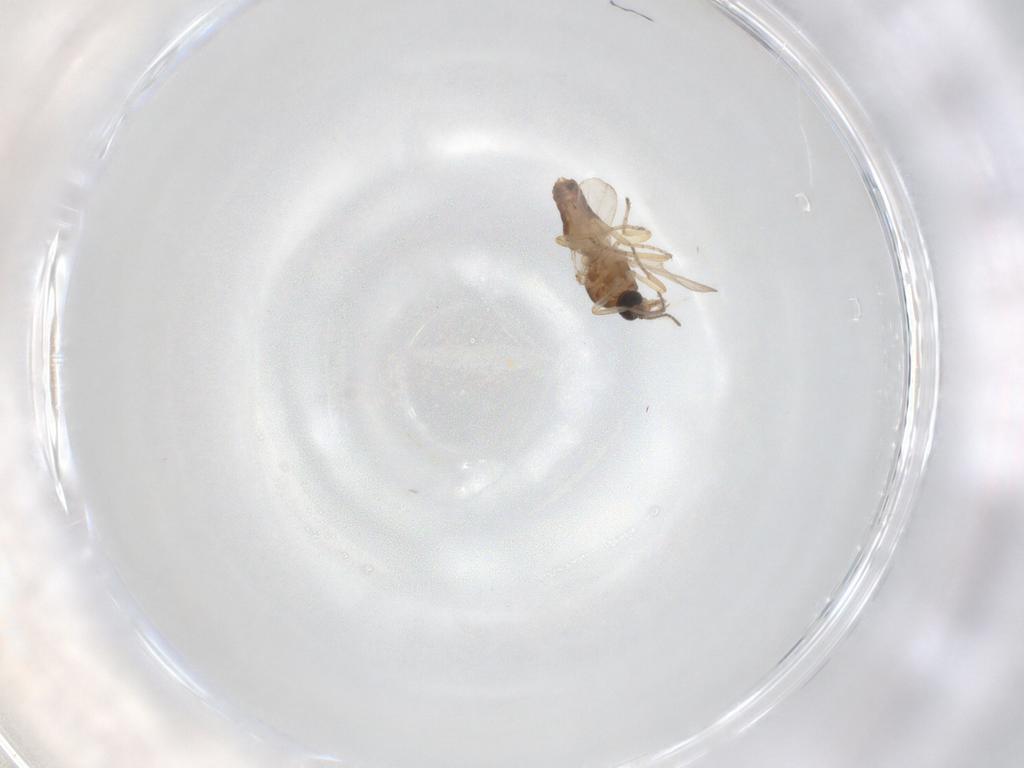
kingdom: Animalia
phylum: Arthropoda
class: Insecta
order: Diptera
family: Ceratopogonidae
